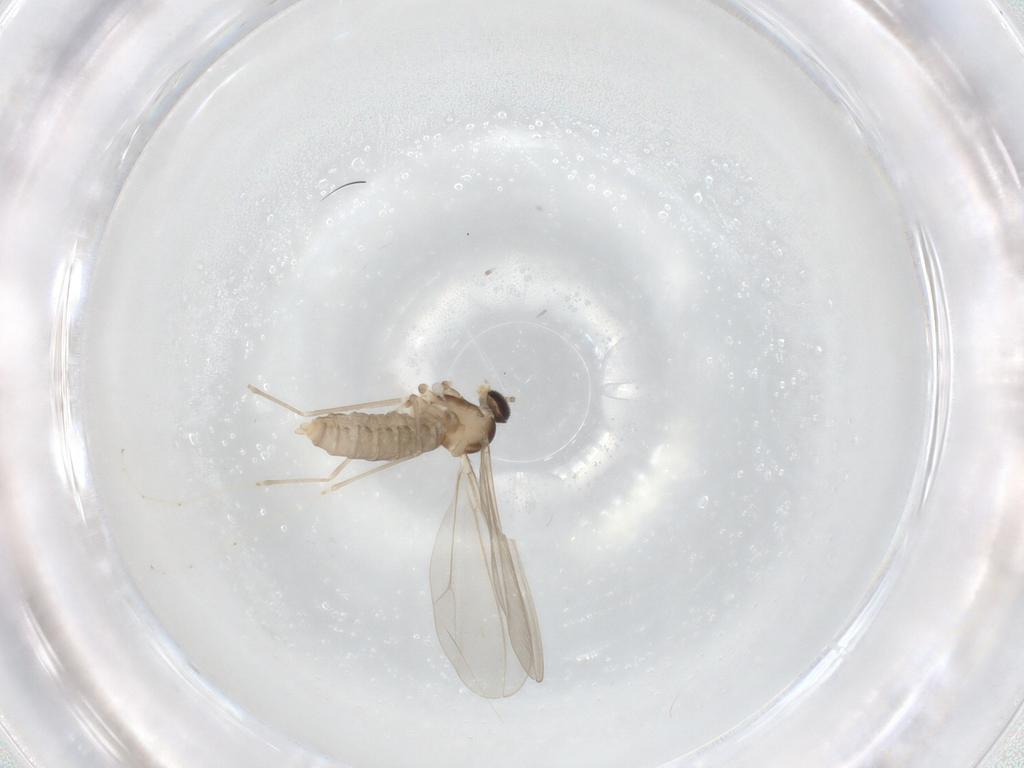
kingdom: Animalia
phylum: Arthropoda
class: Insecta
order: Diptera
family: Cecidomyiidae
